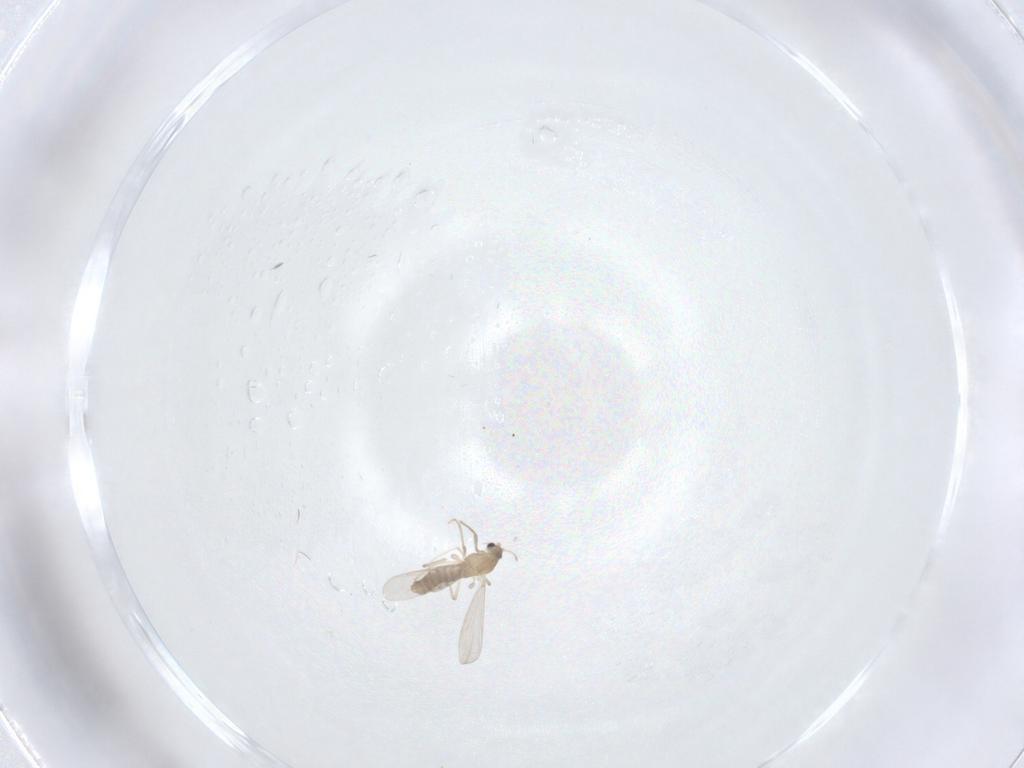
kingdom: Animalia
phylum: Arthropoda
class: Insecta
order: Diptera
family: Chironomidae
